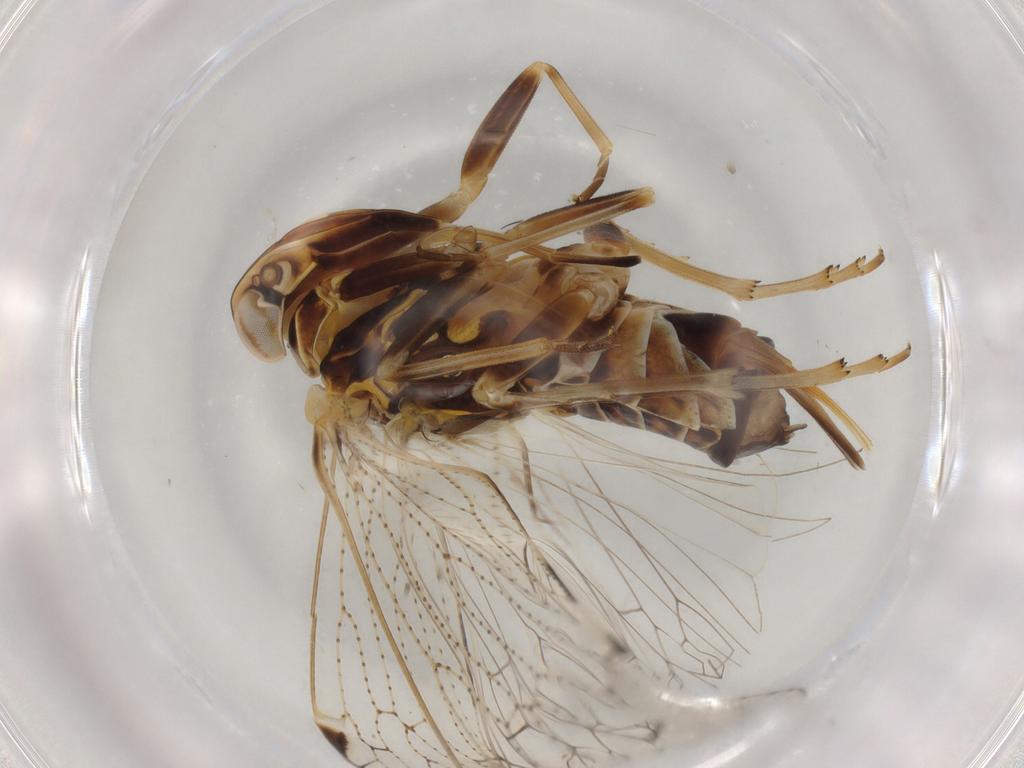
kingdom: Animalia
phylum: Arthropoda
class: Insecta
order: Hemiptera
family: Cixiidae
